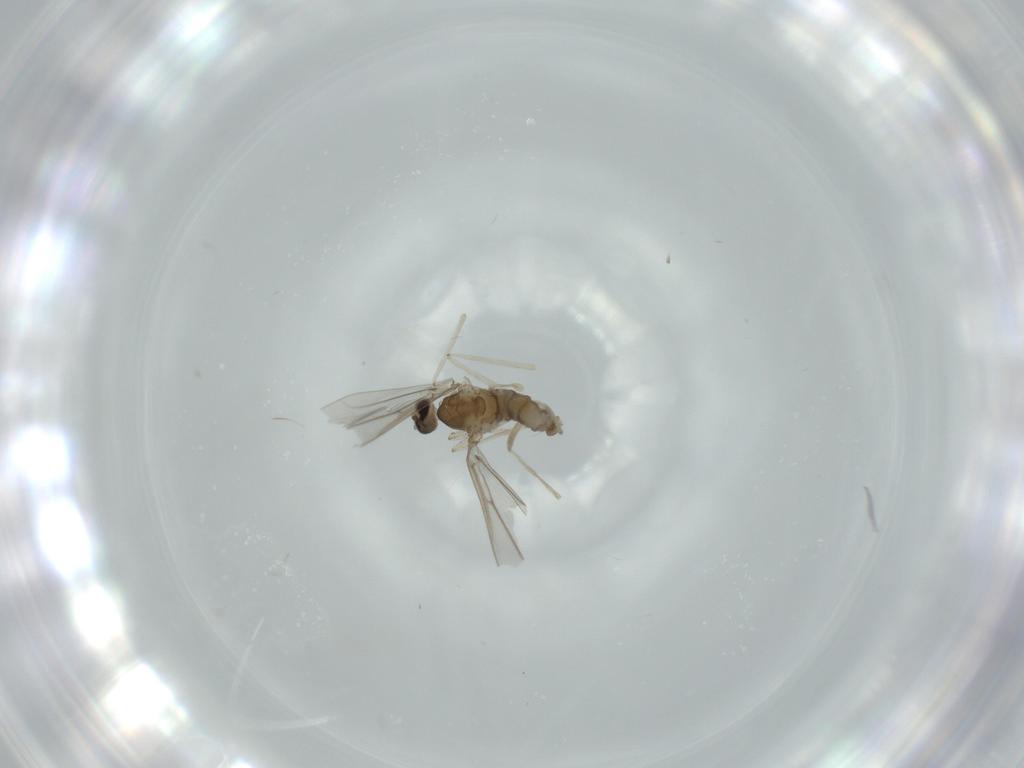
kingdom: Animalia
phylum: Arthropoda
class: Insecta
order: Diptera
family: Cecidomyiidae
